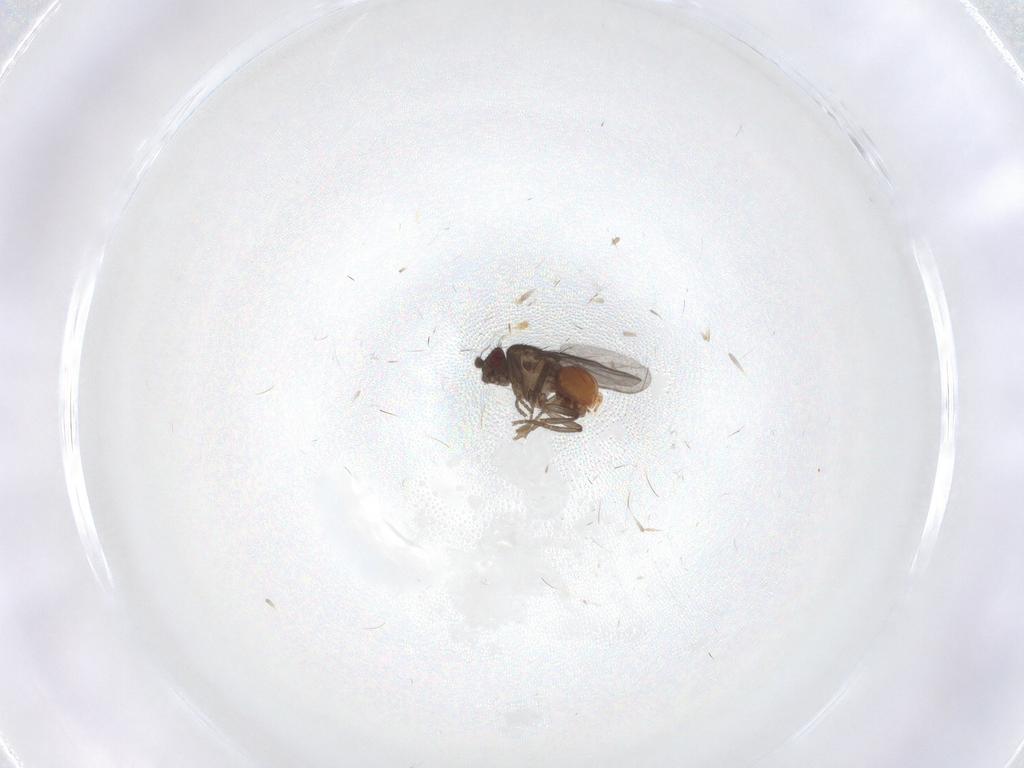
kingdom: Animalia
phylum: Arthropoda
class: Insecta
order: Diptera
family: Sphaeroceridae
